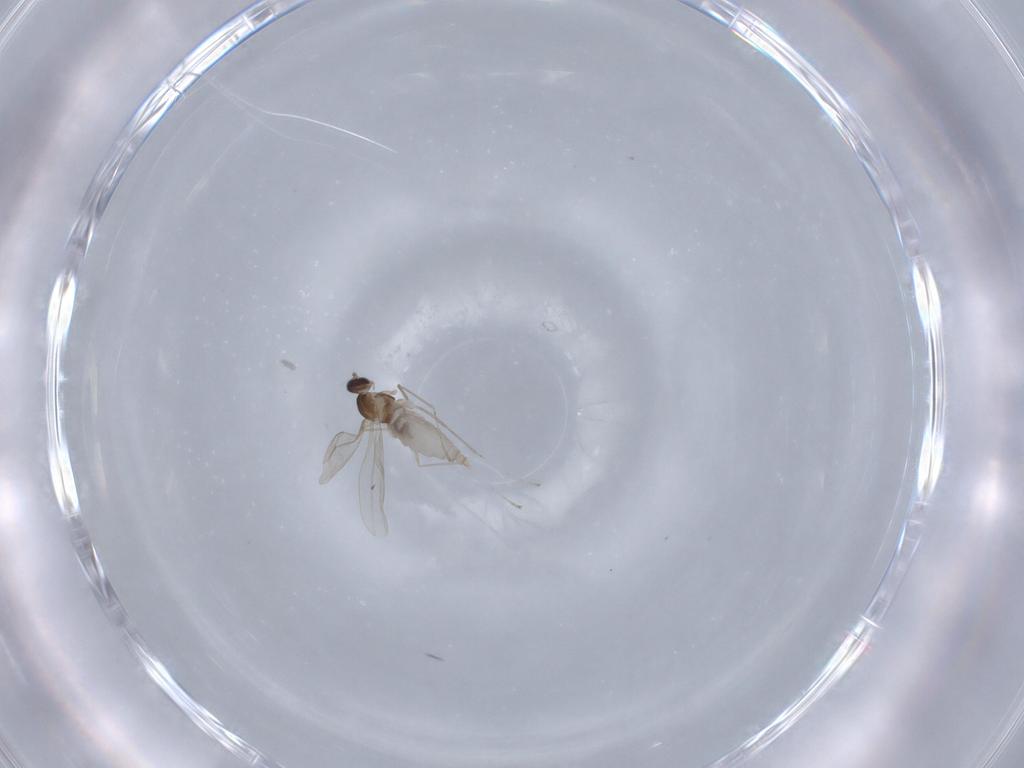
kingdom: Animalia
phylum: Arthropoda
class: Insecta
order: Diptera
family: Cecidomyiidae
